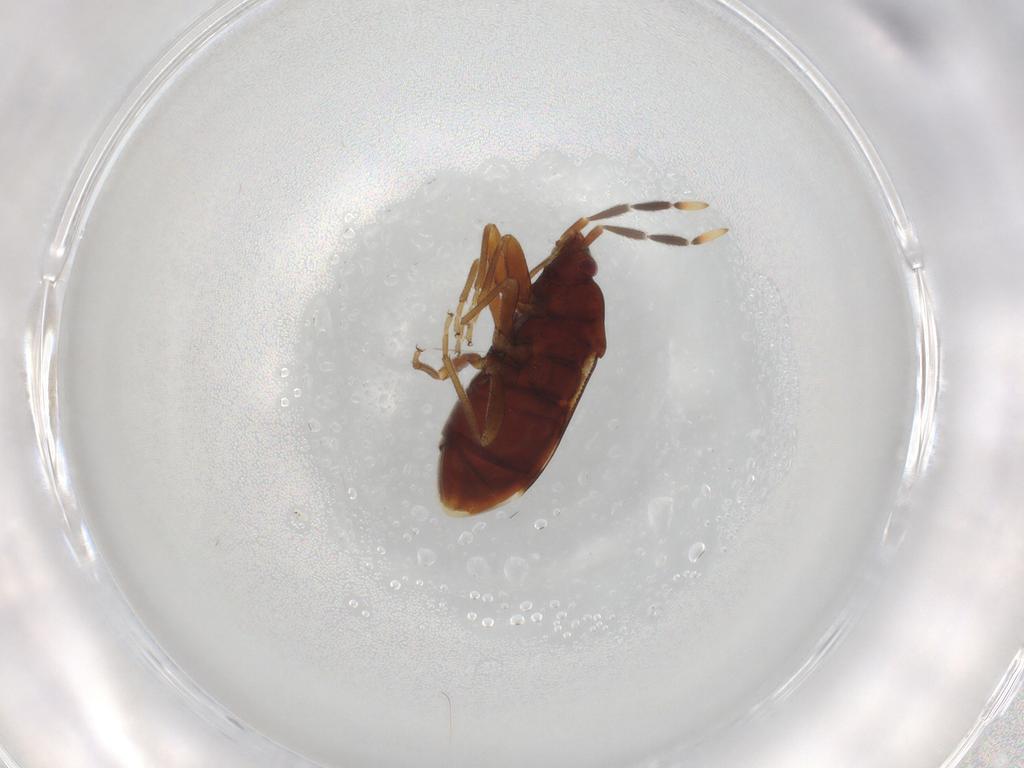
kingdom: Animalia
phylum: Arthropoda
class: Insecta
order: Hemiptera
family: Rhyparochromidae
